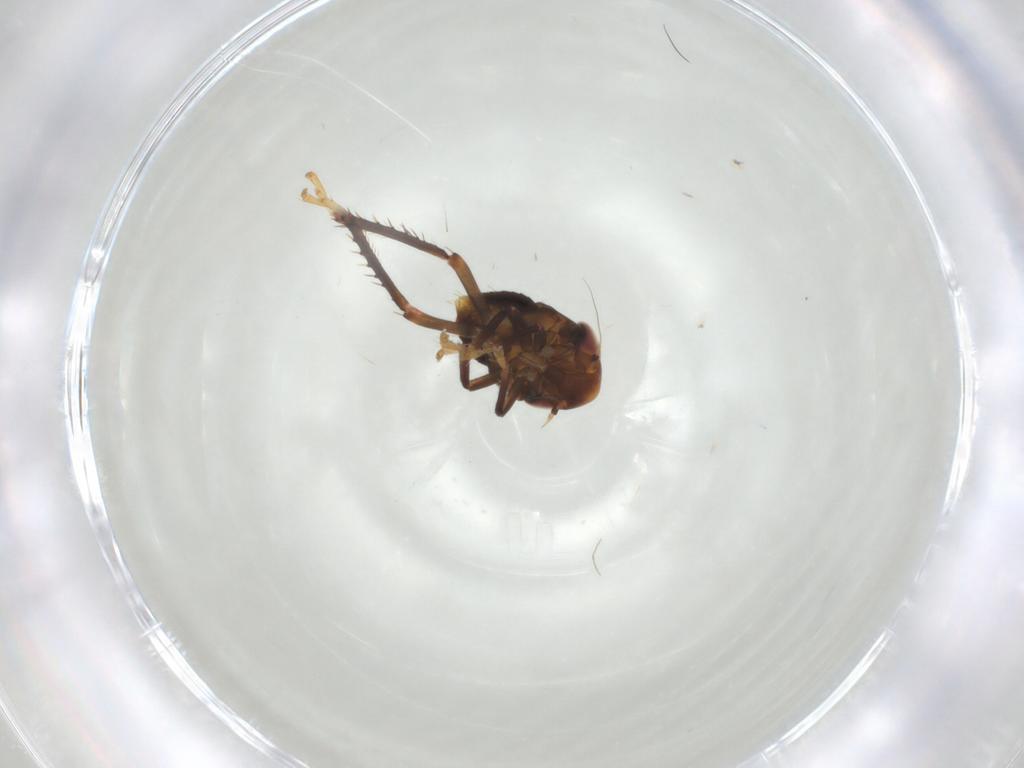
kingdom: Animalia
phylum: Arthropoda
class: Insecta
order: Hemiptera
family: Cicadellidae
